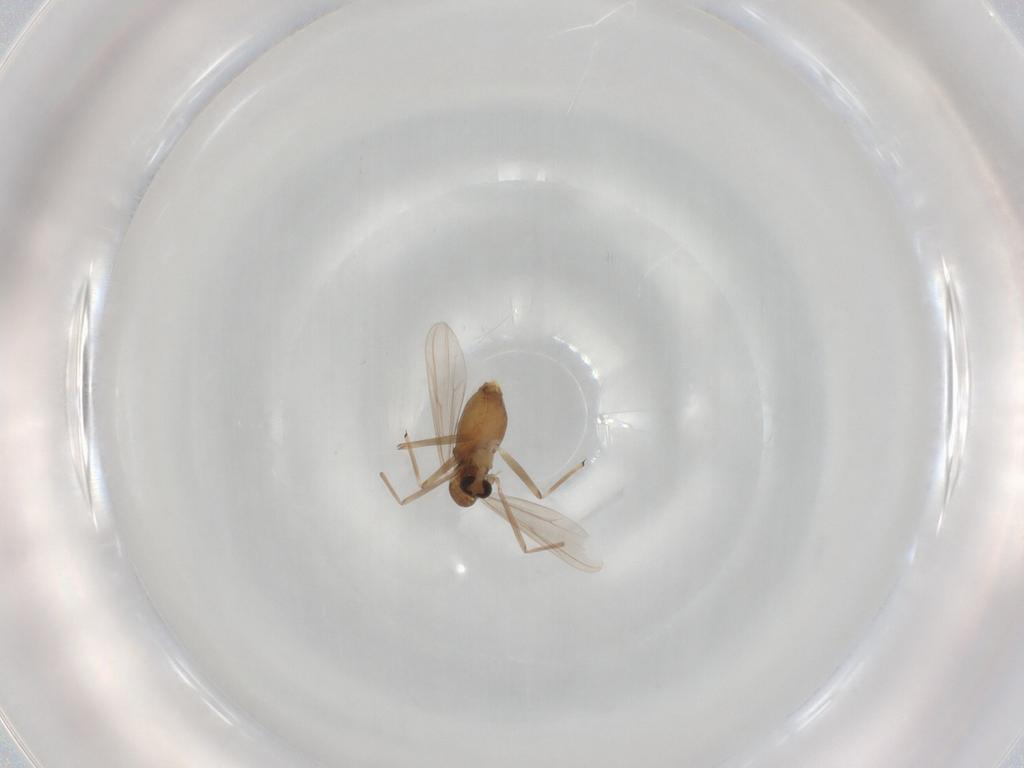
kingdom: Animalia
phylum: Arthropoda
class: Insecta
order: Diptera
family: Chironomidae
